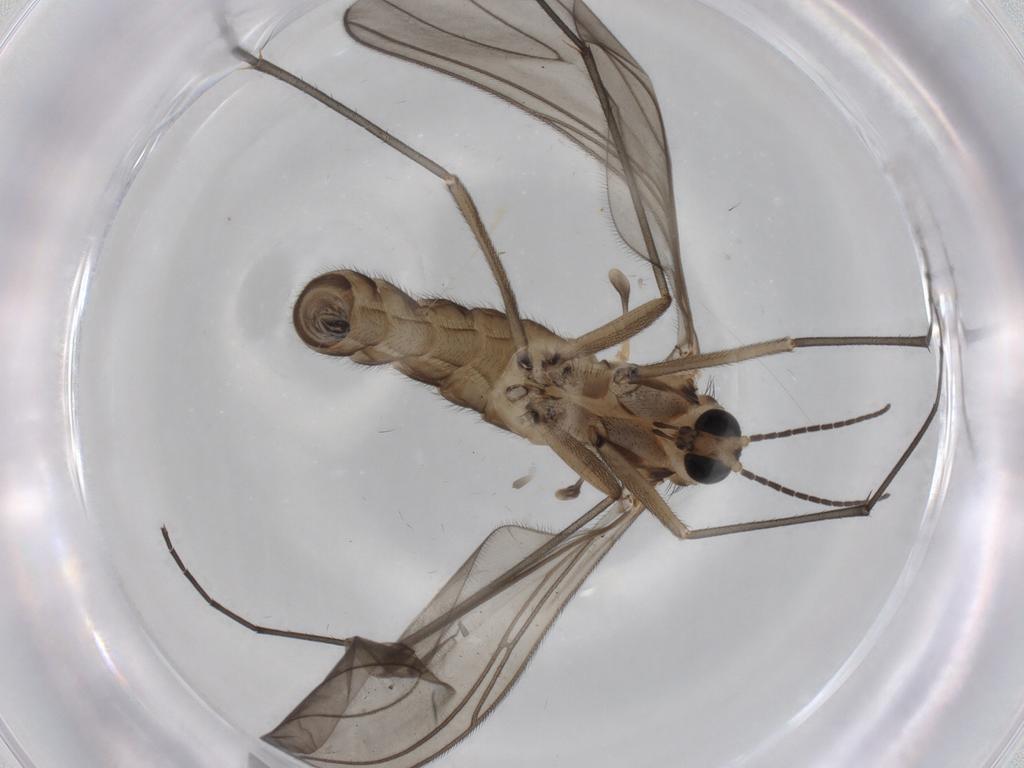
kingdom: Animalia
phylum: Arthropoda
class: Insecta
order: Diptera
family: Sciaridae
